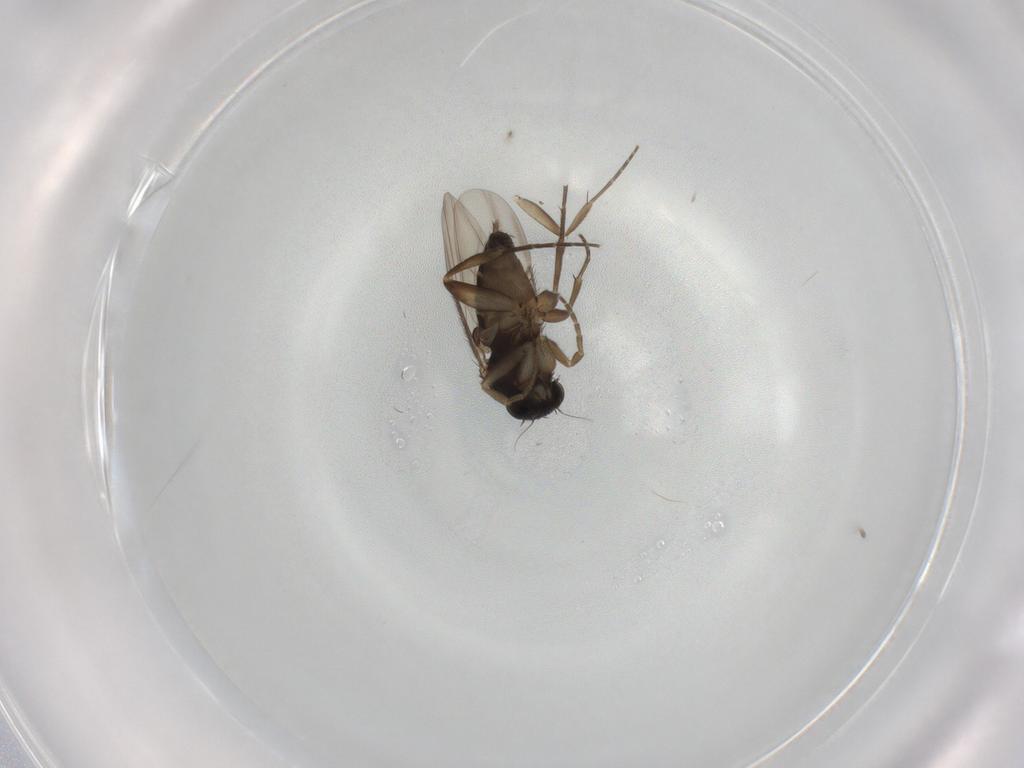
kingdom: Animalia
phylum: Arthropoda
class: Insecta
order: Diptera
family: Phoridae
